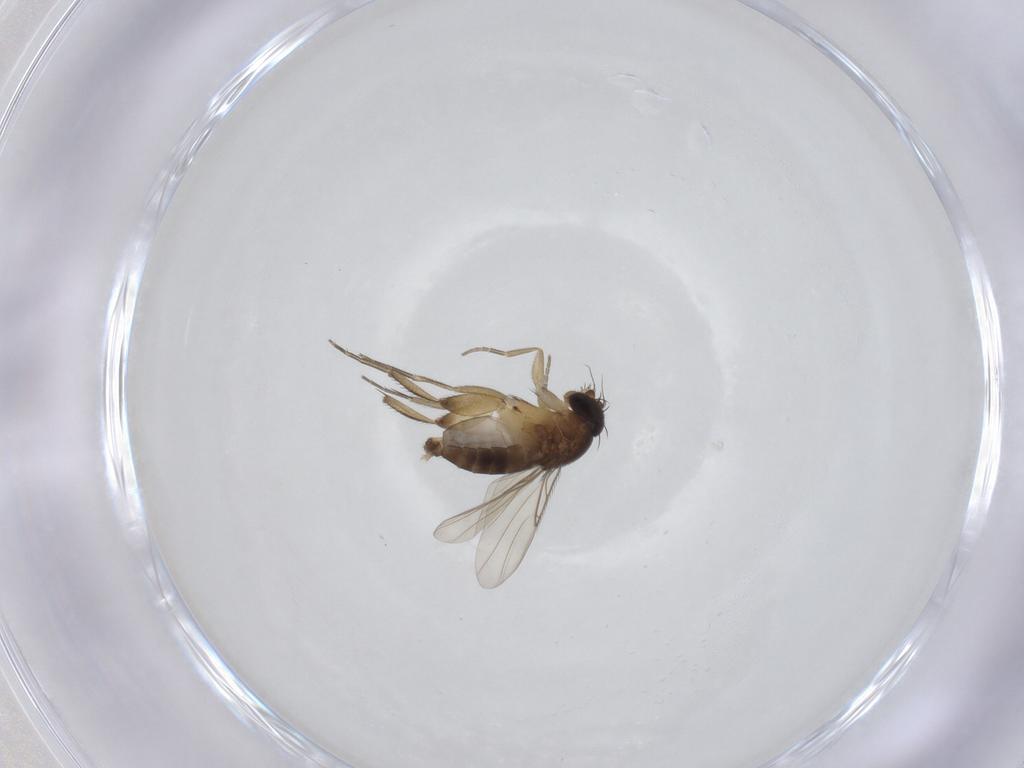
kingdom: Animalia
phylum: Arthropoda
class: Insecta
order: Diptera
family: Phoridae
